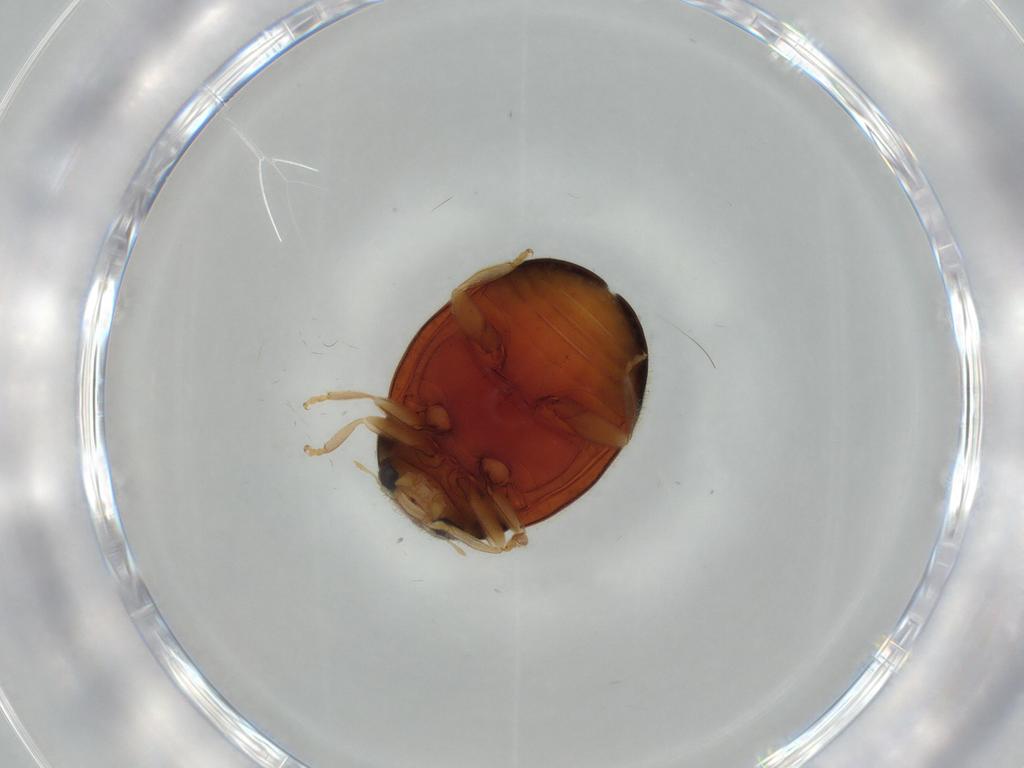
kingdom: Animalia
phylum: Arthropoda
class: Insecta
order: Coleoptera
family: Coccinellidae
